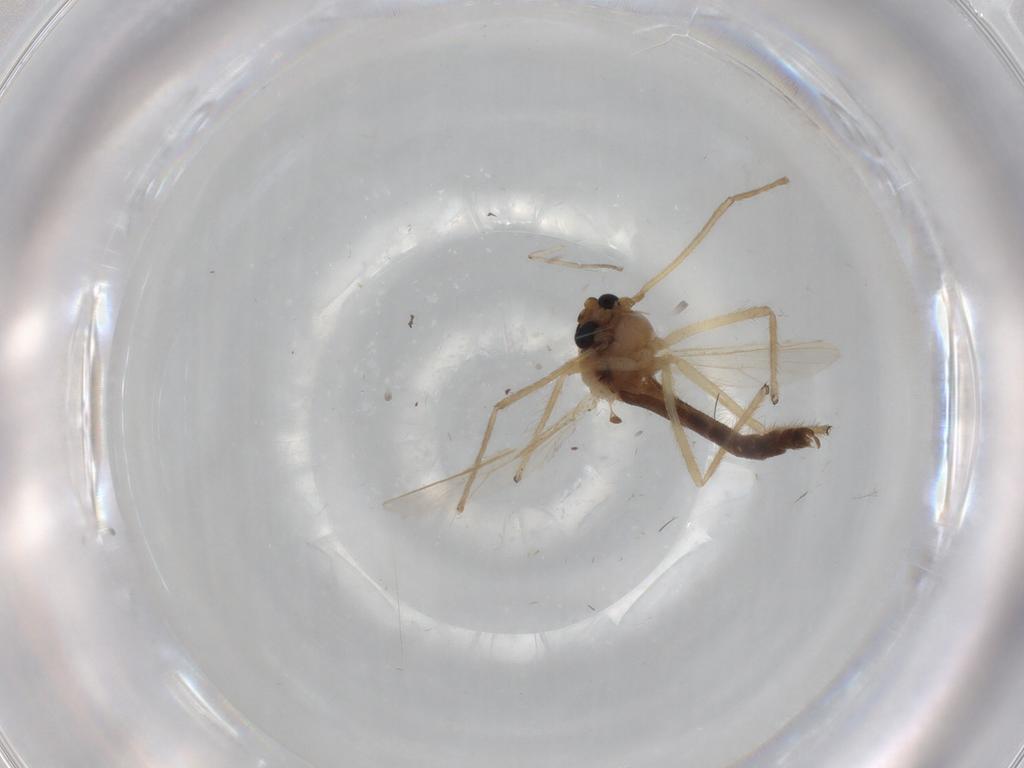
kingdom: Animalia
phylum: Arthropoda
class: Insecta
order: Diptera
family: Chironomidae
